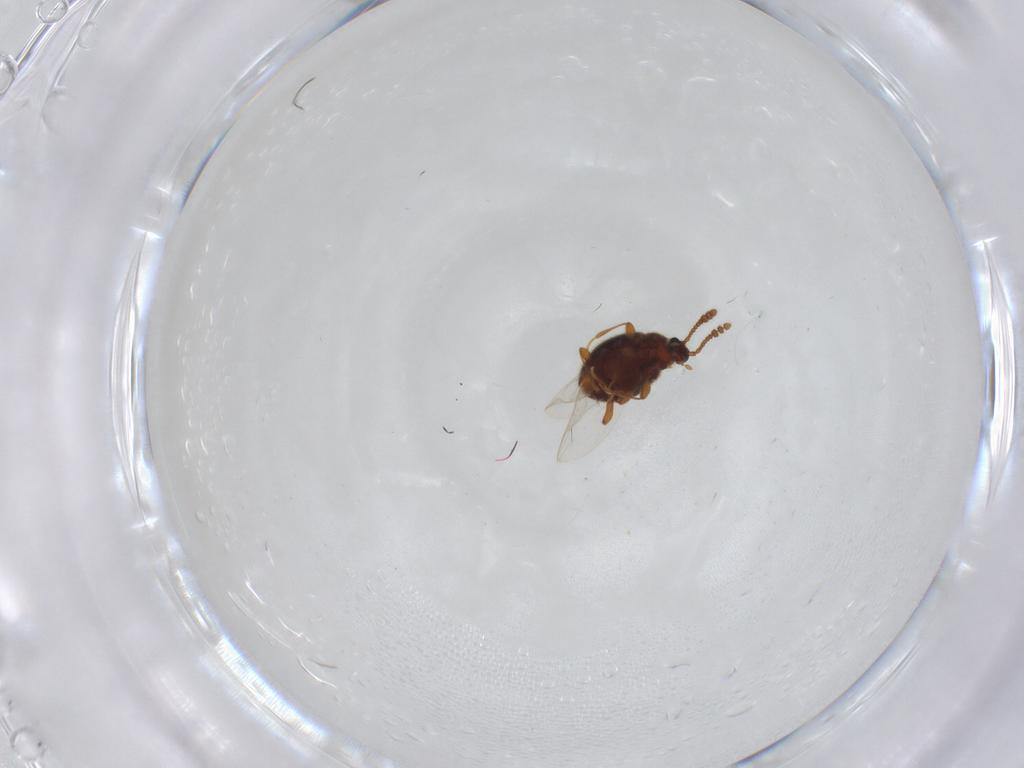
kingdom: Animalia
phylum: Arthropoda
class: Insecta
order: Coleoptera
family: Staphylinidae
